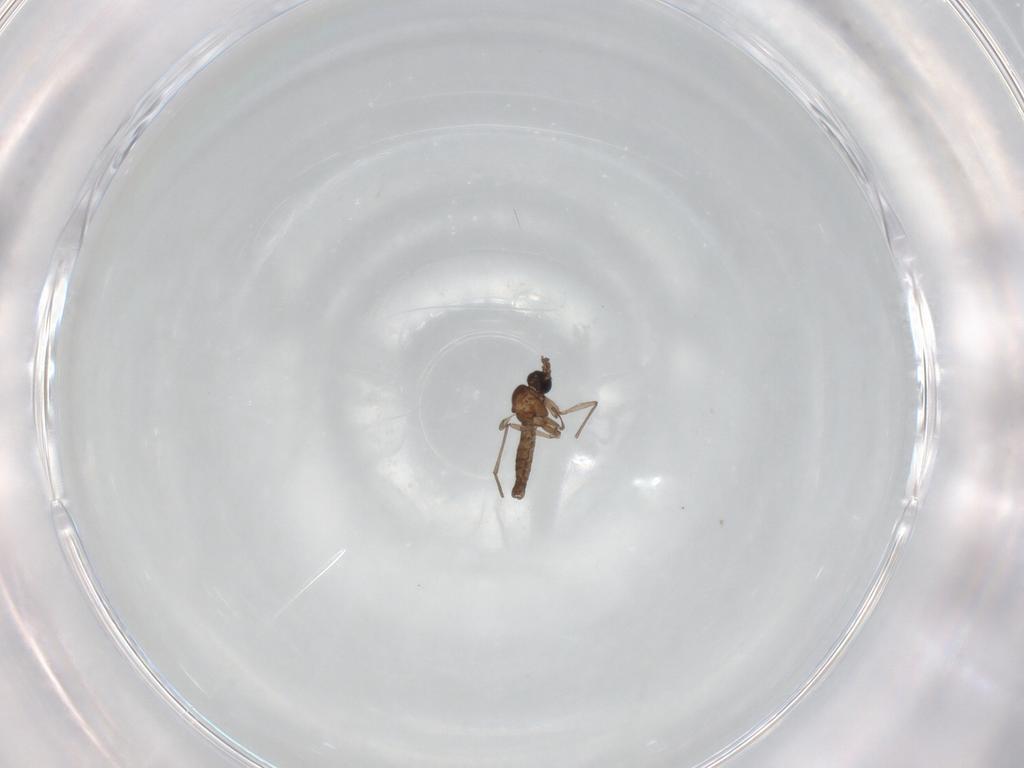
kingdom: Animalia
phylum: Arthropoda
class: Insecta
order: Diptera
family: Sciaridae
